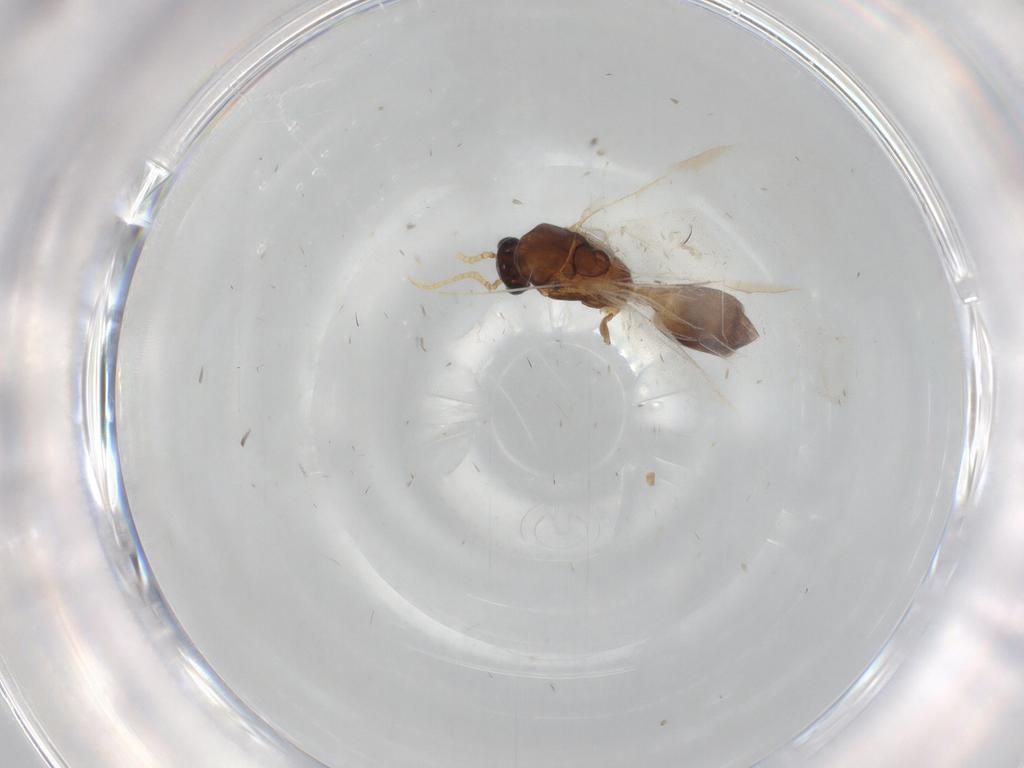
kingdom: Animalia
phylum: Arthropoda
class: Insecta
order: Hymenoptera
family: Formicidae
